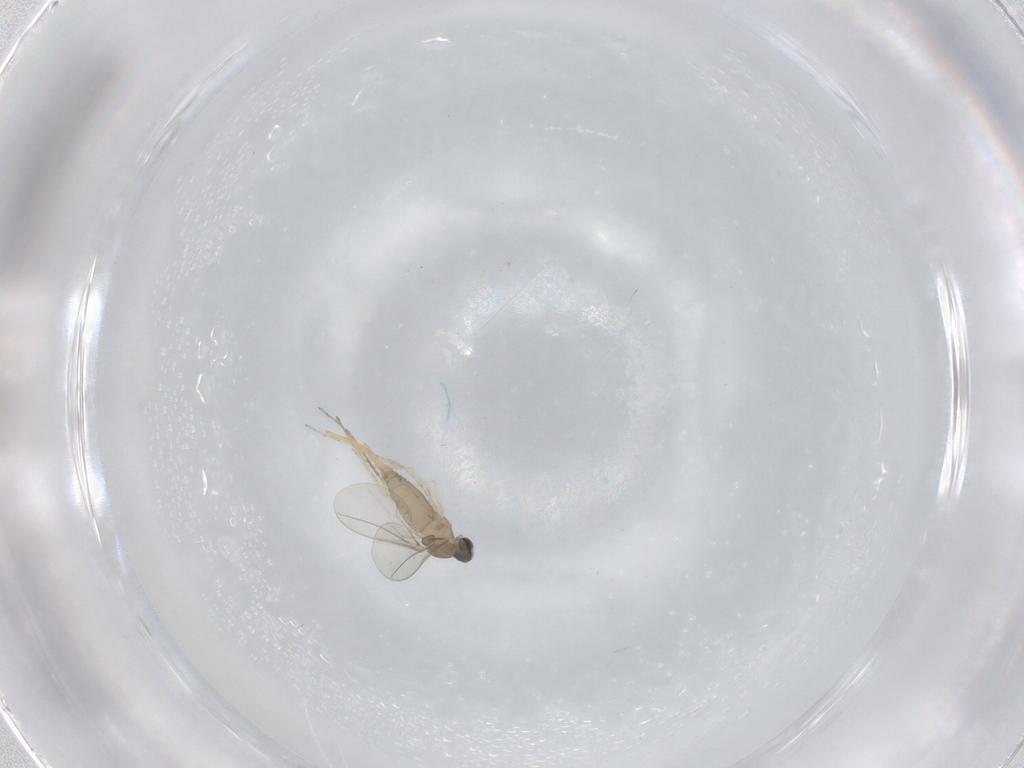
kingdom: Animalia
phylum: Arthropoda
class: Insecta
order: Diptera
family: Cecidomyiidae
